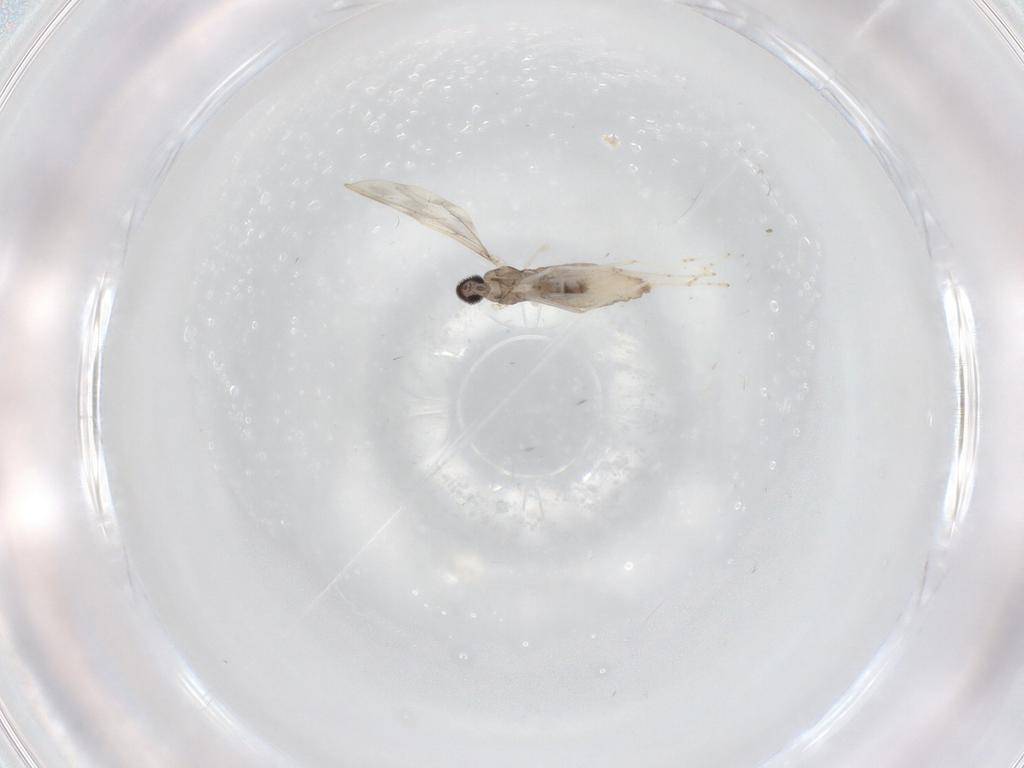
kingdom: Animalia
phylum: Arthropoda
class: Insecta
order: Diptera
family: Cecidomyiidae
